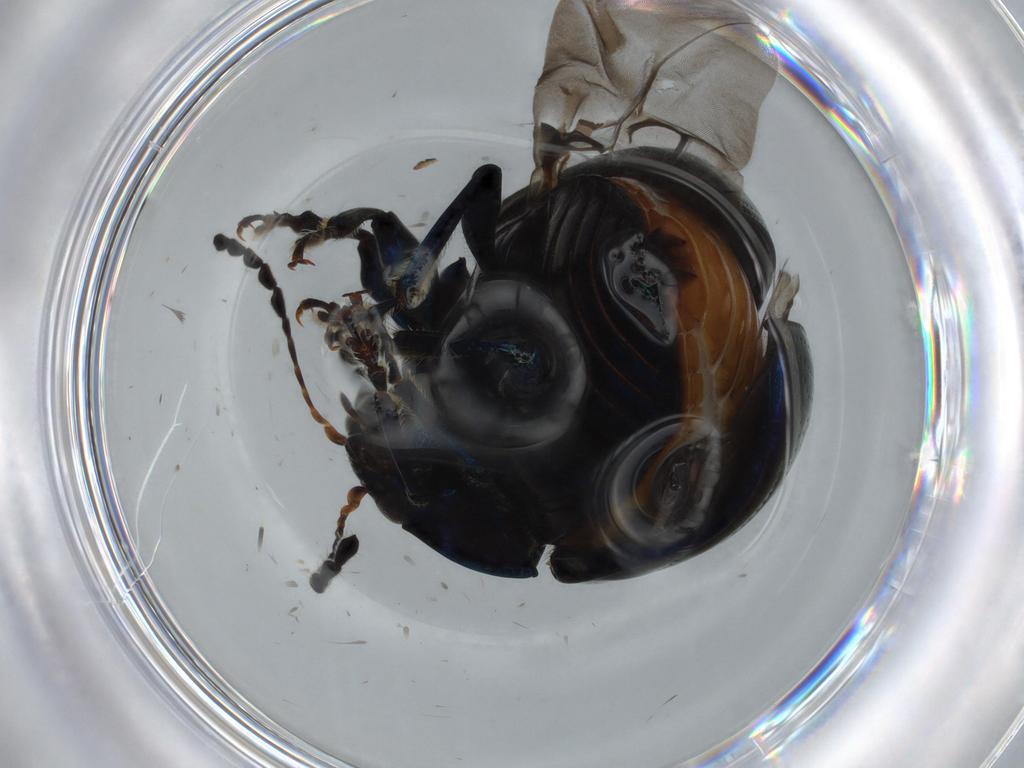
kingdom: Animalia
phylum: Arthropoda
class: Insecta
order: Coleoptera
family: Chrysomelidae
